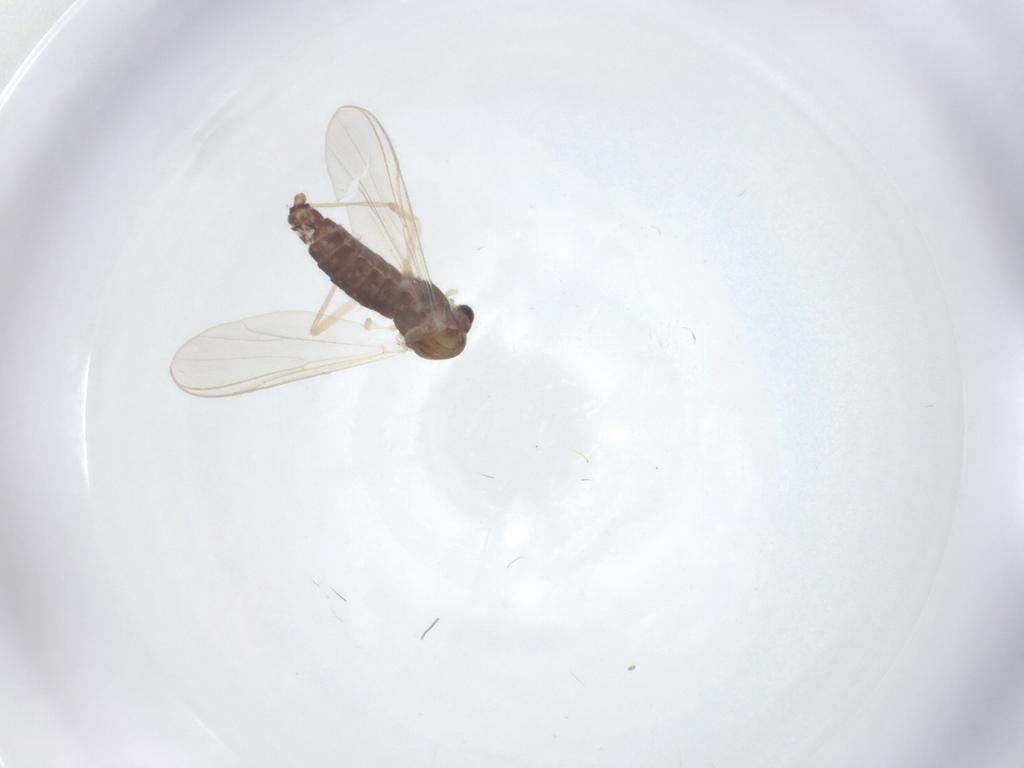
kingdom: Animalia
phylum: Arthropoda
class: Insecta
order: Diptera
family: Chironomidae
